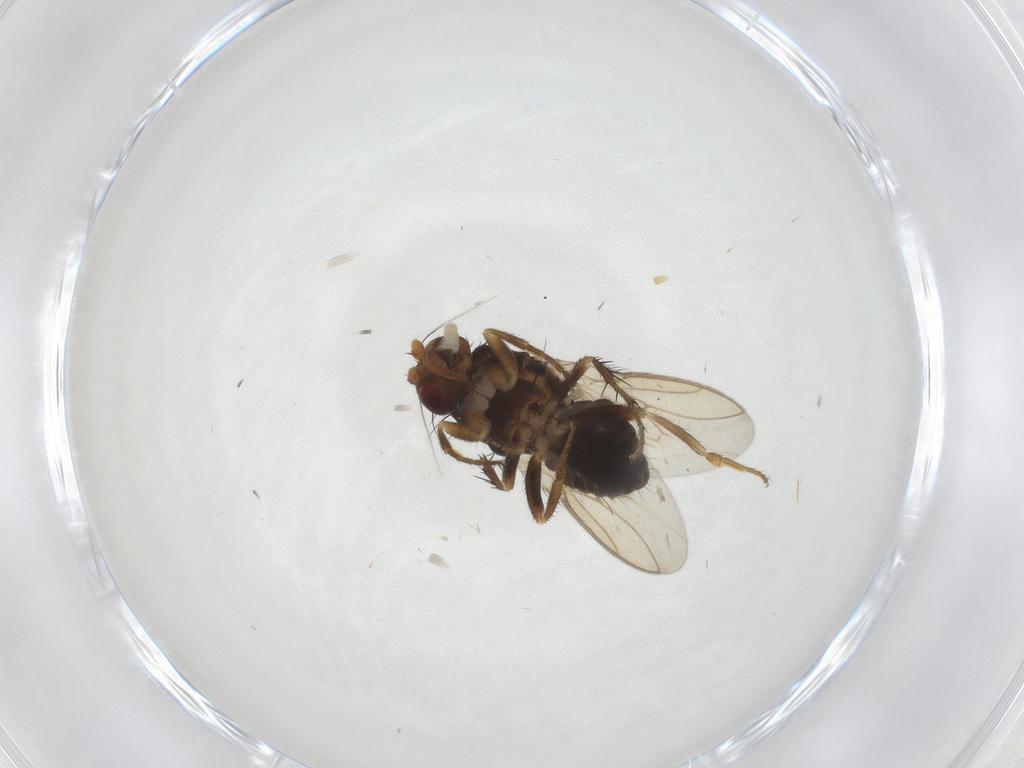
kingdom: Animalia
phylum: Arthropoda
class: Insecta
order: Diptera
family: Sphaeroceridae
